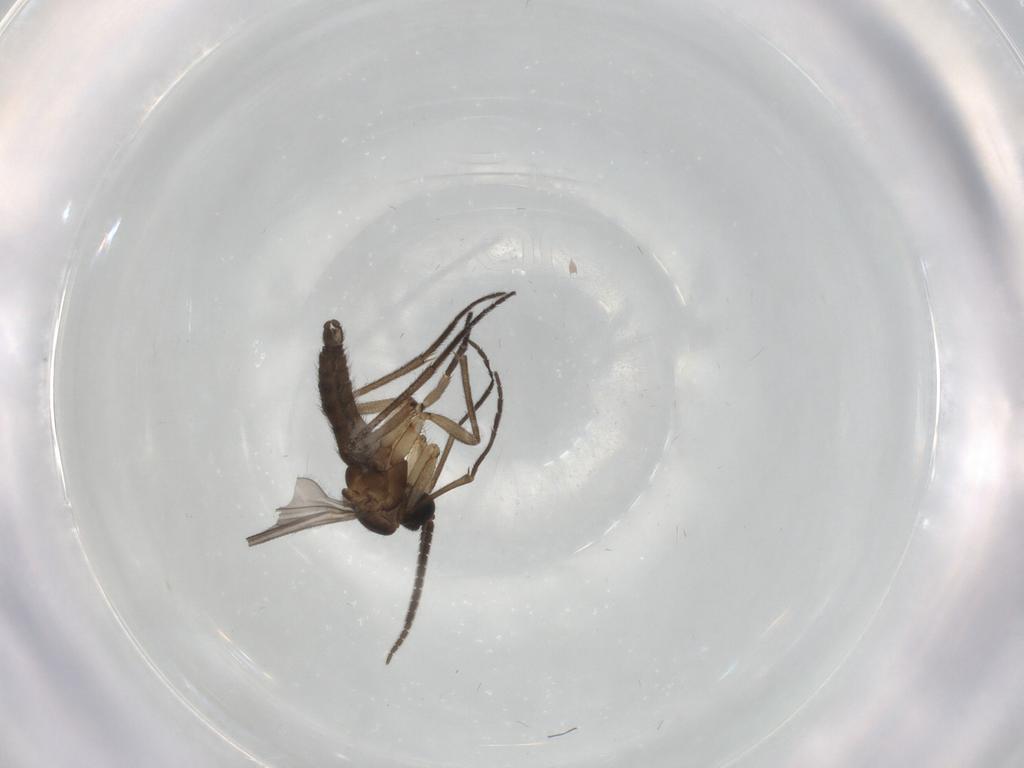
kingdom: Animalia
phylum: Arthropoda
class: Insecta
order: Diptera
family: Sciaridae
